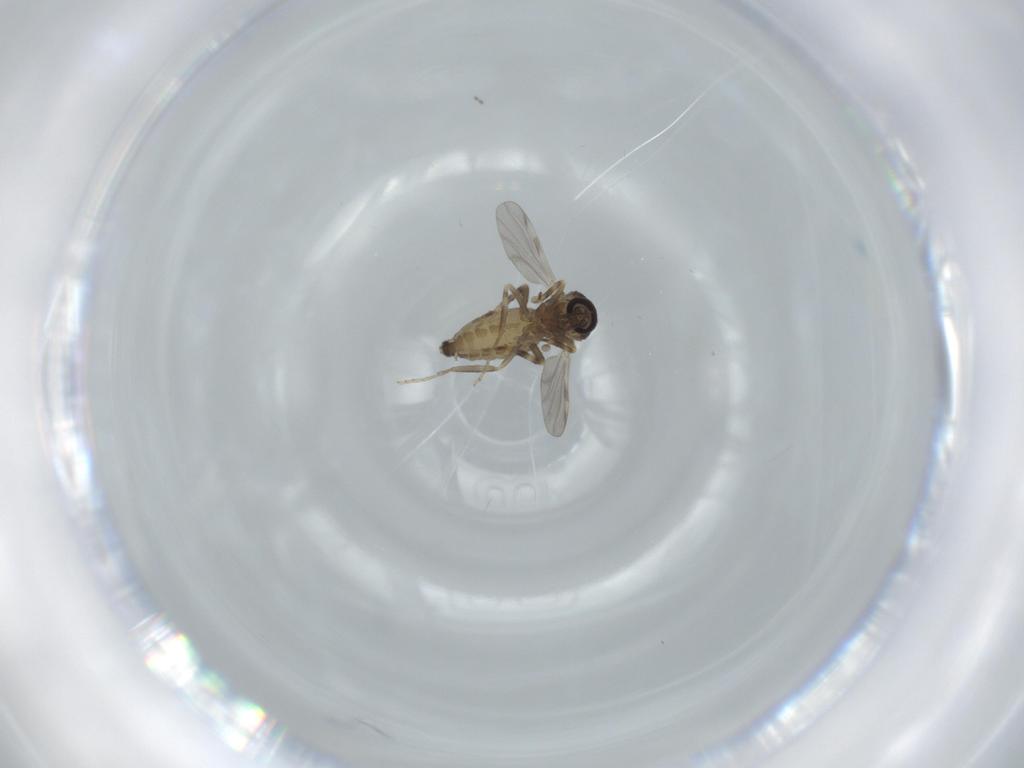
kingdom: Animalia
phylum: Arthropoda
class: Insecta
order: Diptera
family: Ceratopogonidae
